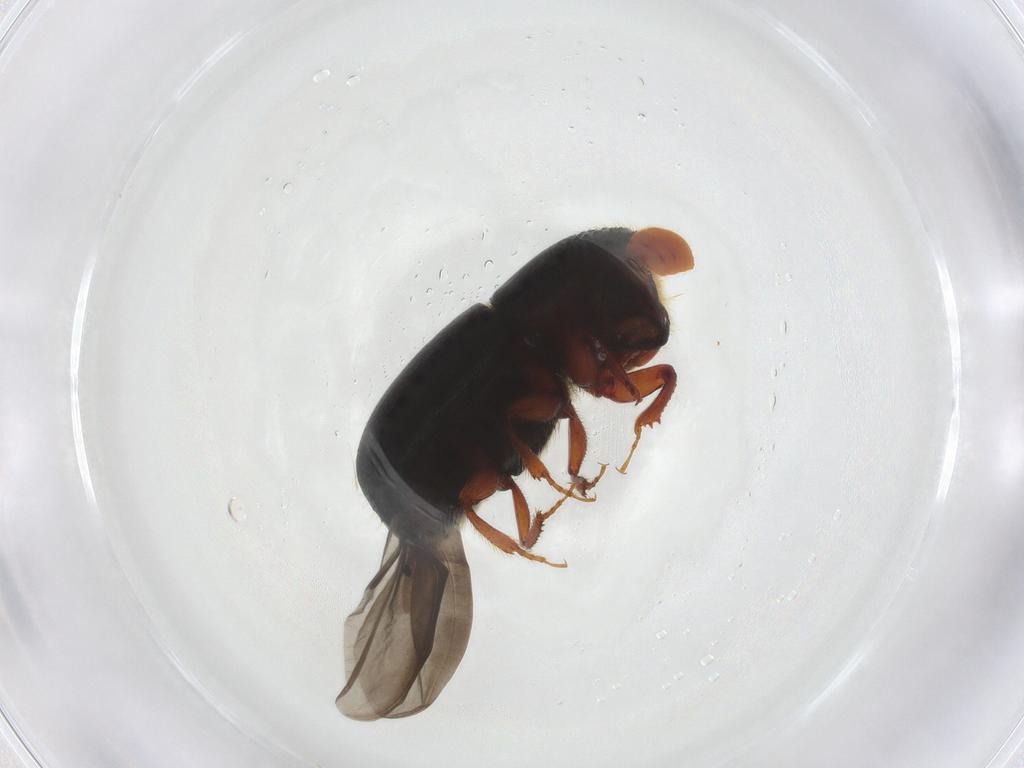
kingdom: Animalia
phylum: Arthropoda
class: Insecta
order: Coleoptera
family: Curculionidae
